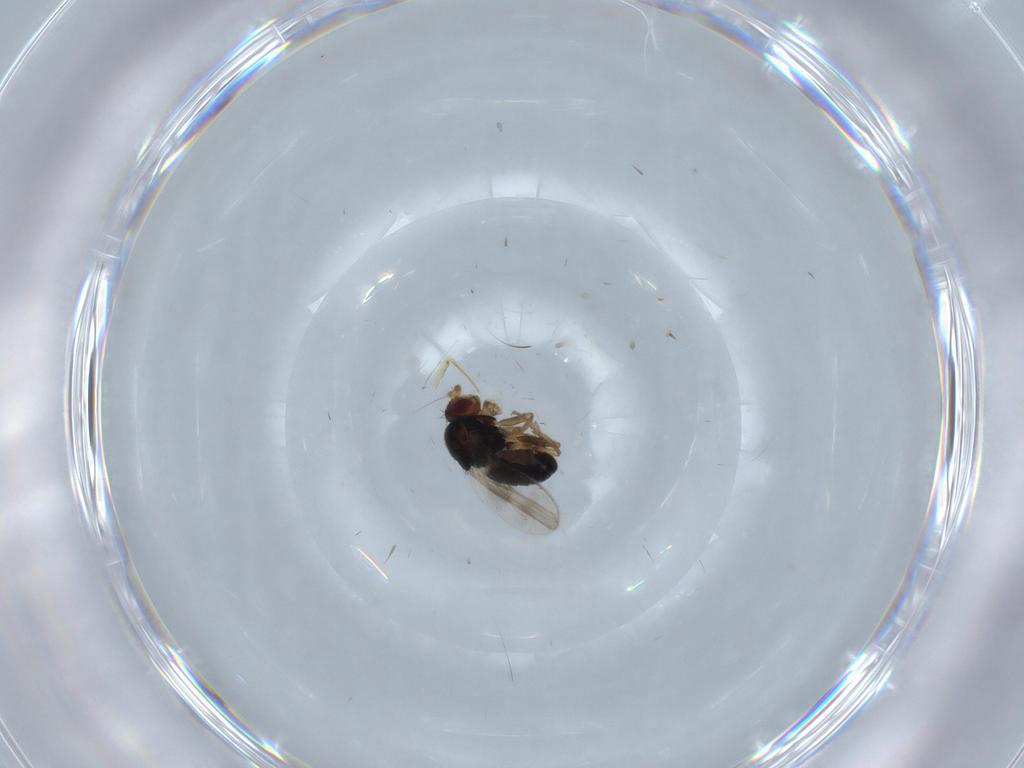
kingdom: Animalia
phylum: Arthropoda
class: Insecta
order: Diptera
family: Sphaeroceridae
